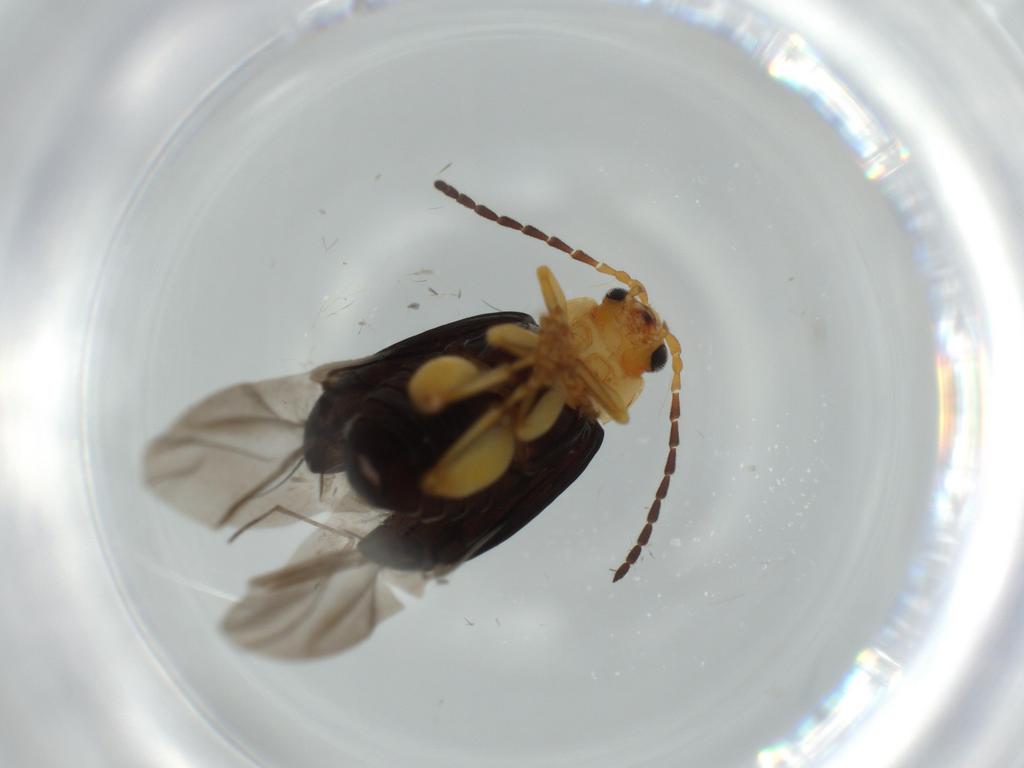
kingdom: Animalia
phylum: Arthropoda
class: Insecta
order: Coleoptera
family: Chrysomelidae
